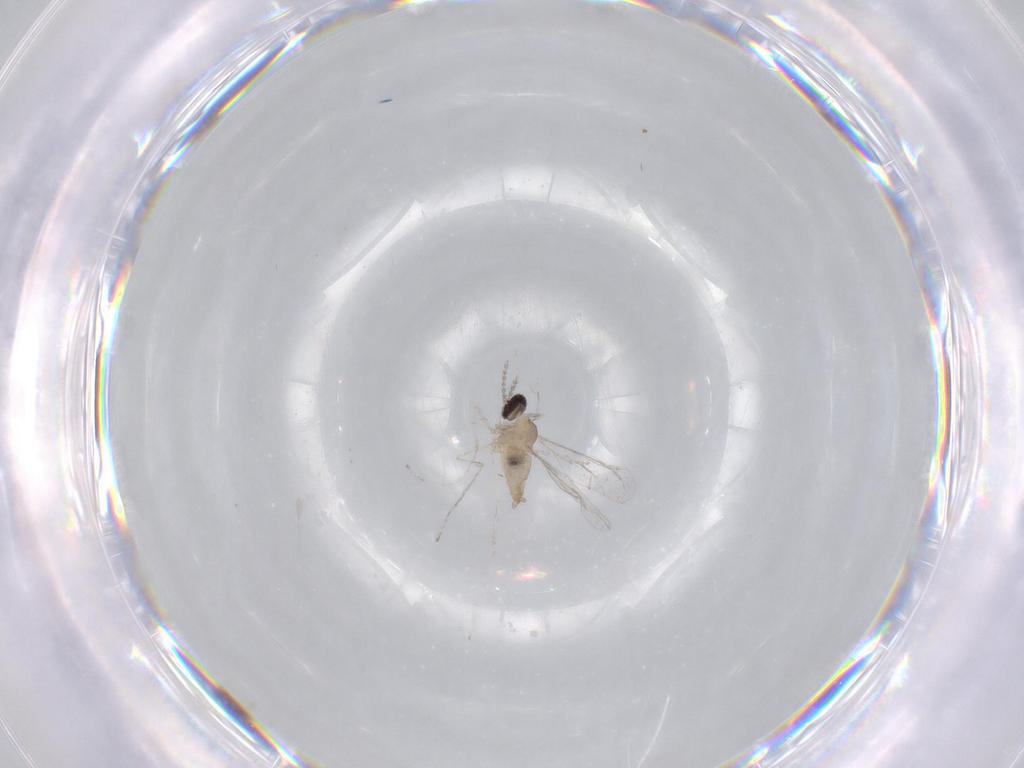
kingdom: Animalia
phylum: Arthropoda
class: Insecta
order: Diptera
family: Cecidomyiidae
